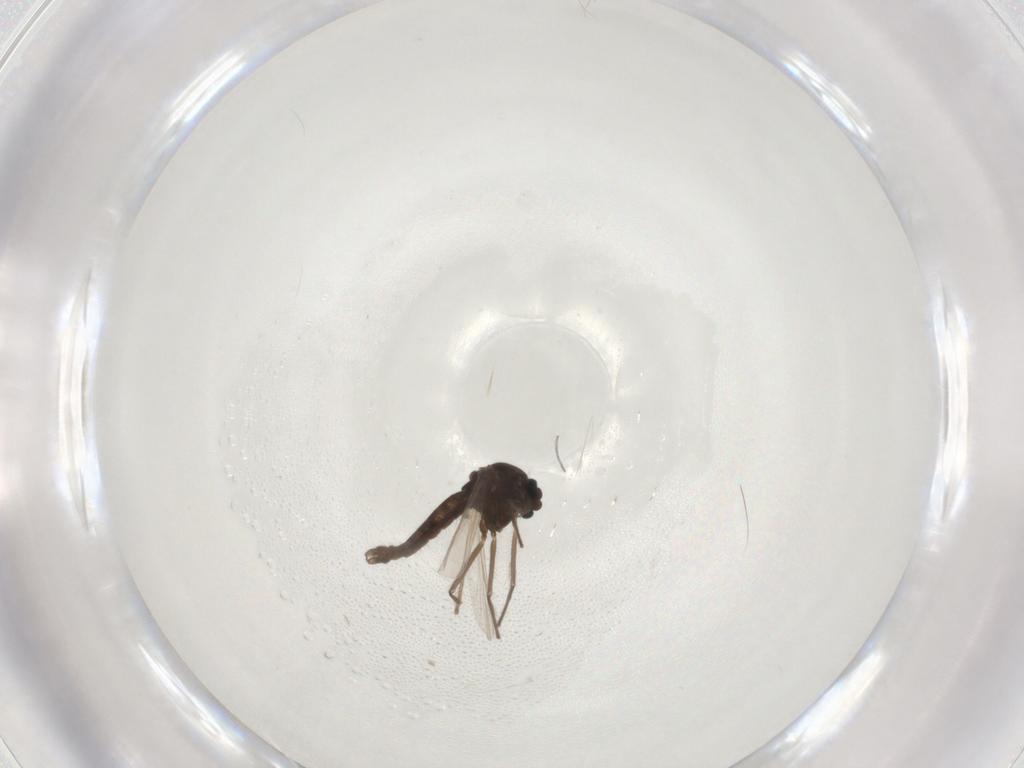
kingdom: Animalia
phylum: Arthropoda
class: Insecta
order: Diptera
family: Chironomidae
